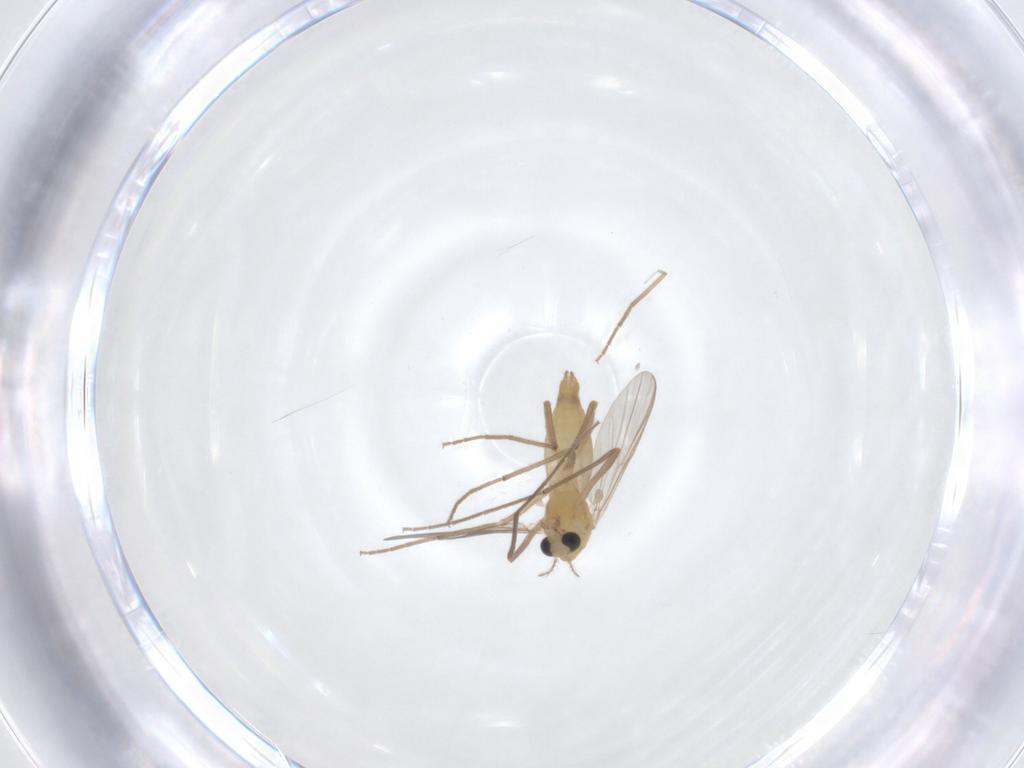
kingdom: Animalia
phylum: Arthropoda
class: Insecta
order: Diptera
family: Chironomidae
